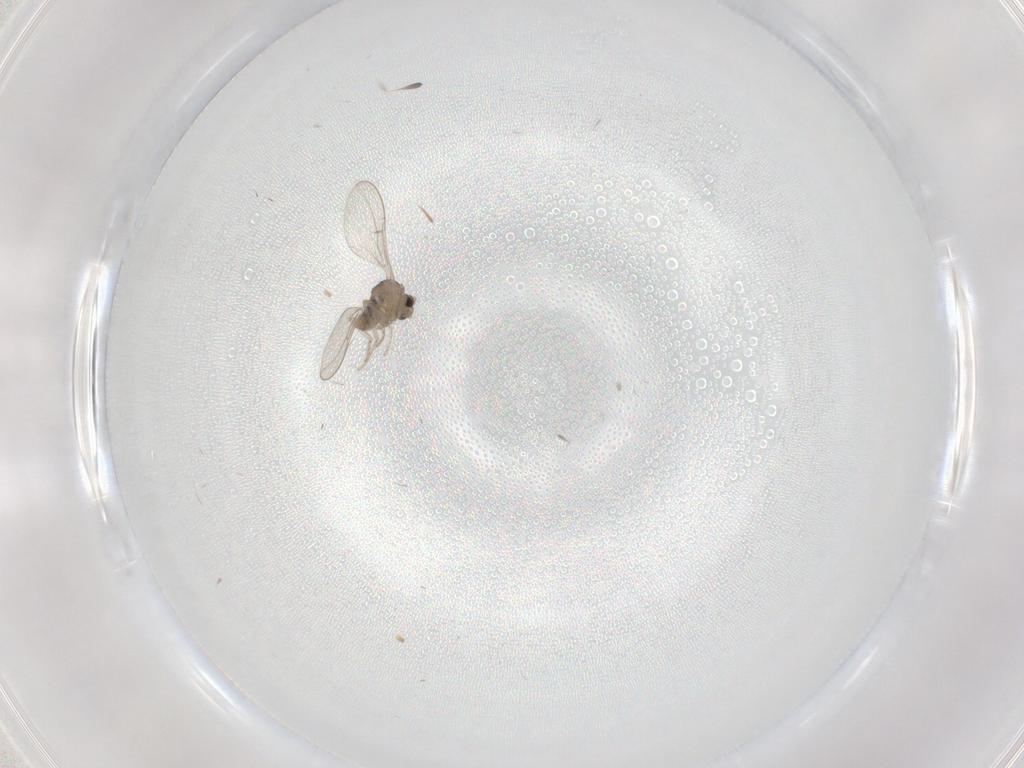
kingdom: Animalia
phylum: Arthropoda
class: Insecta
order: Diptera
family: Cecidomyiidae
